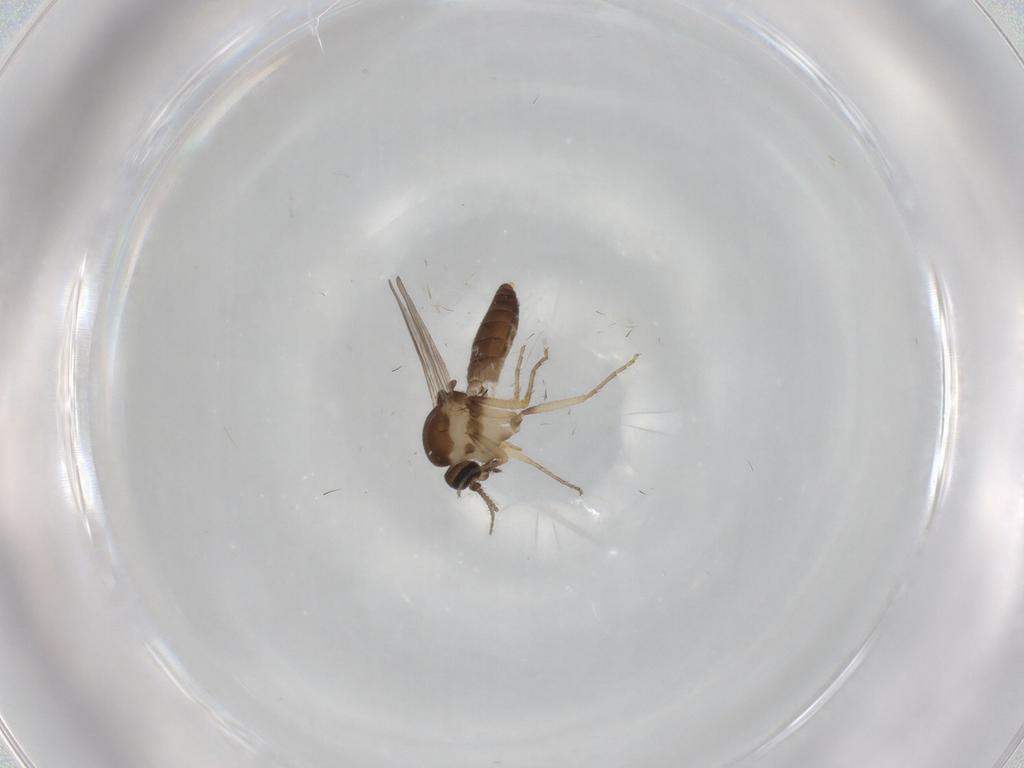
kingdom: Animalia
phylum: Arthropoda
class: Insecta
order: Diptera
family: Ceratopogonidae
